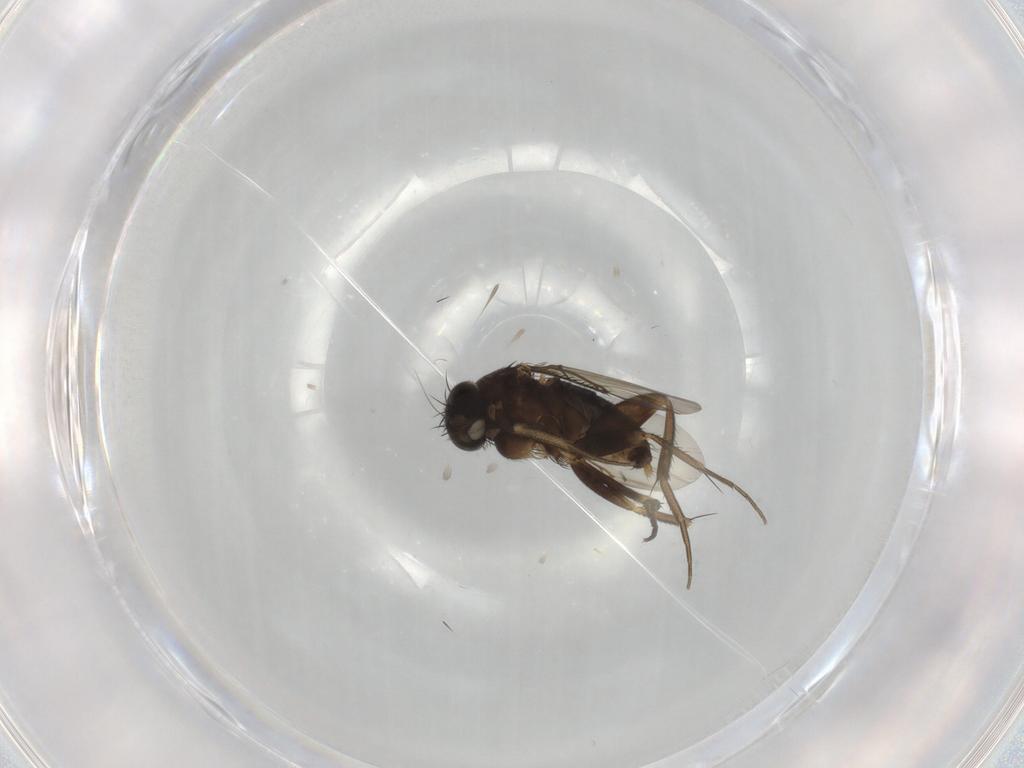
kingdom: Animalia
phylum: Arthropoda
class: Insecta
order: Diptera
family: Phoridae
